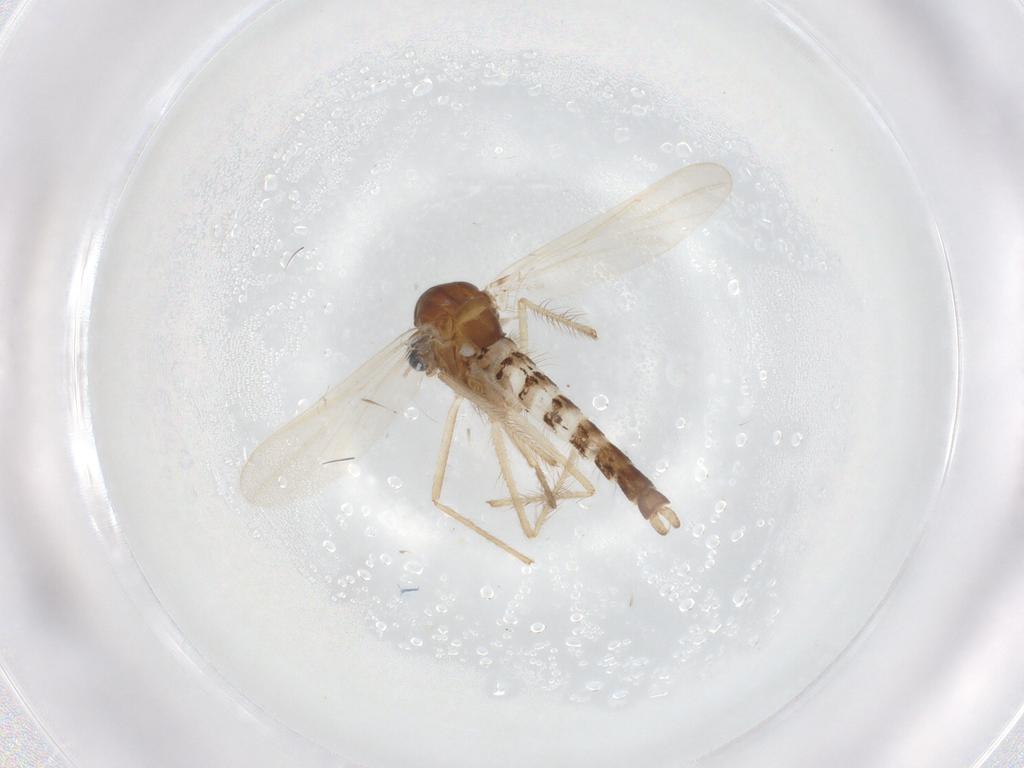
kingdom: Animalia
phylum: Arthropoda
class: Insecta
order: Diptera
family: Chironomidae
